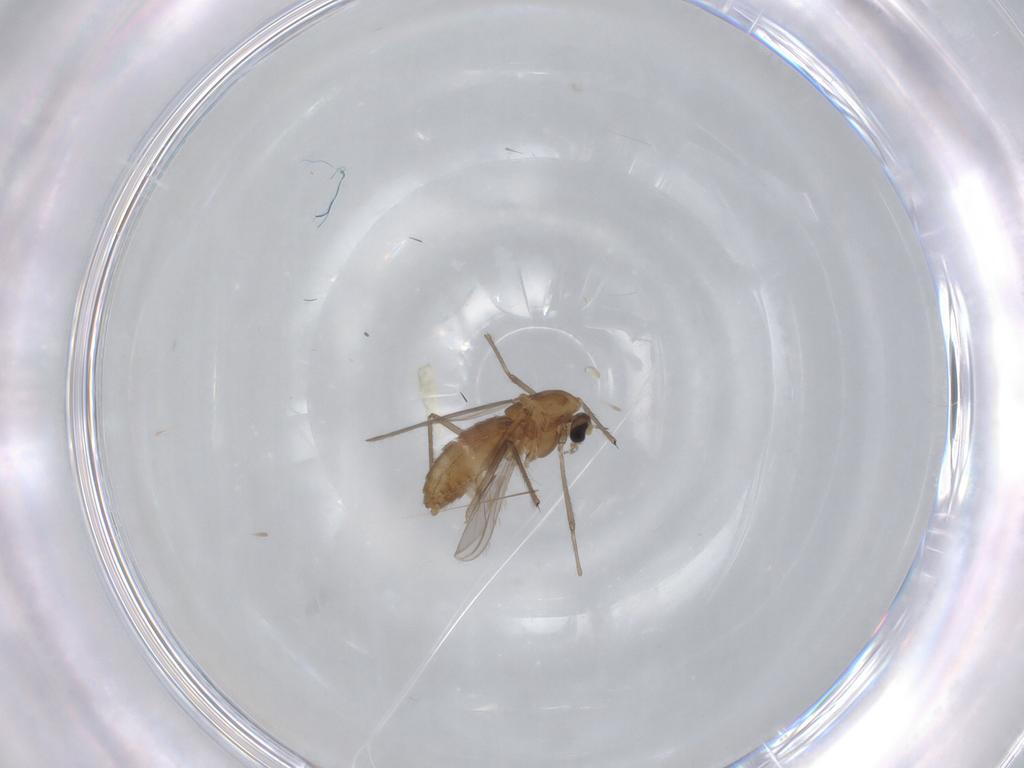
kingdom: Animalia
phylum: Arthropoda
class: Insecta
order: Diptera
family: Chironomidae
